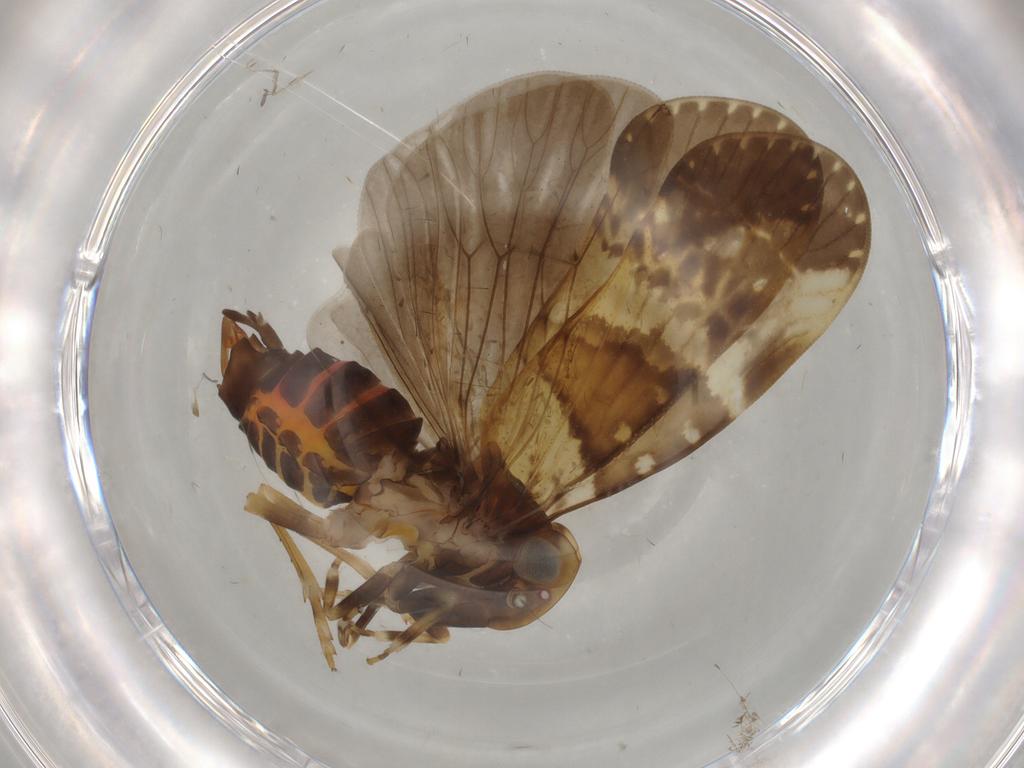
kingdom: Animalia
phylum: Arthropoda
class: Insecta
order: Hemiptera
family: Cixiidae
